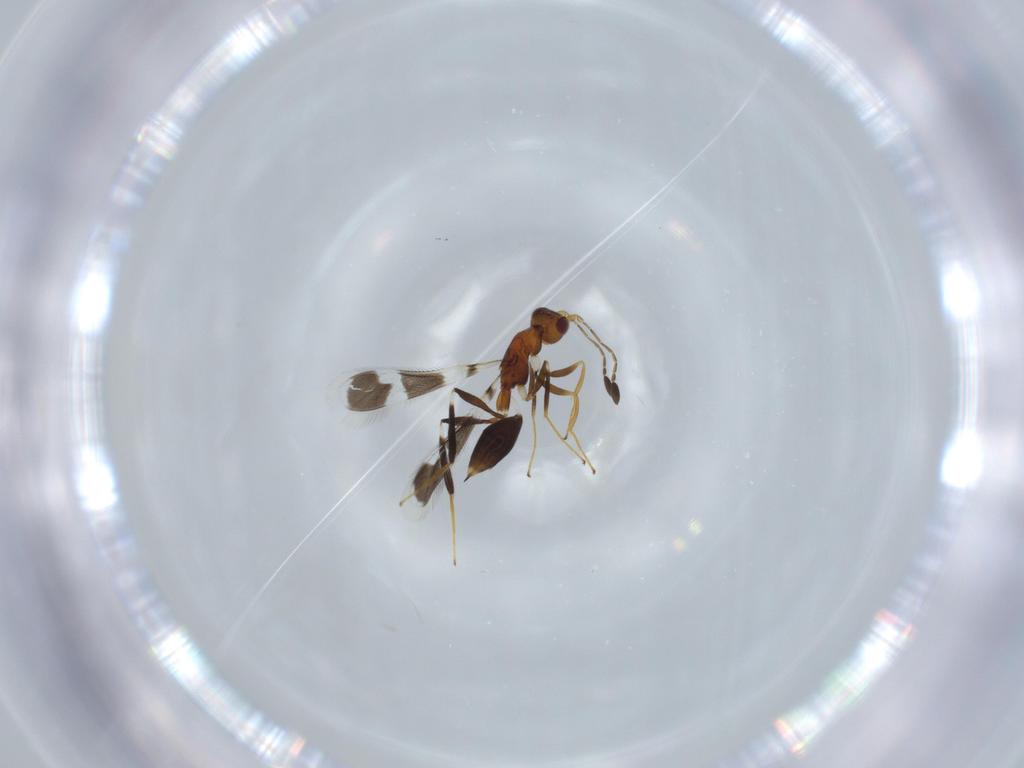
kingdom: Animalia
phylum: Arthropoda
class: Insecta
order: Hymenoptera
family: Mymaridae
